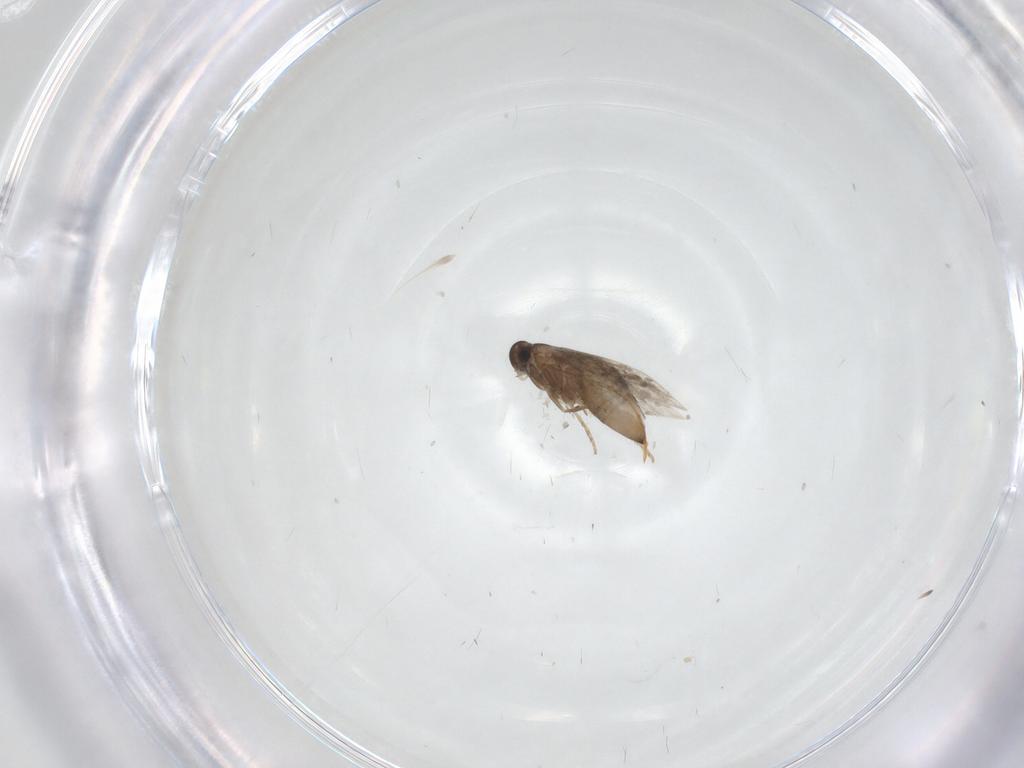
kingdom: Animalia
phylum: Arthropoda
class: Insecta
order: Lepidoptera
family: Heliozelidae
